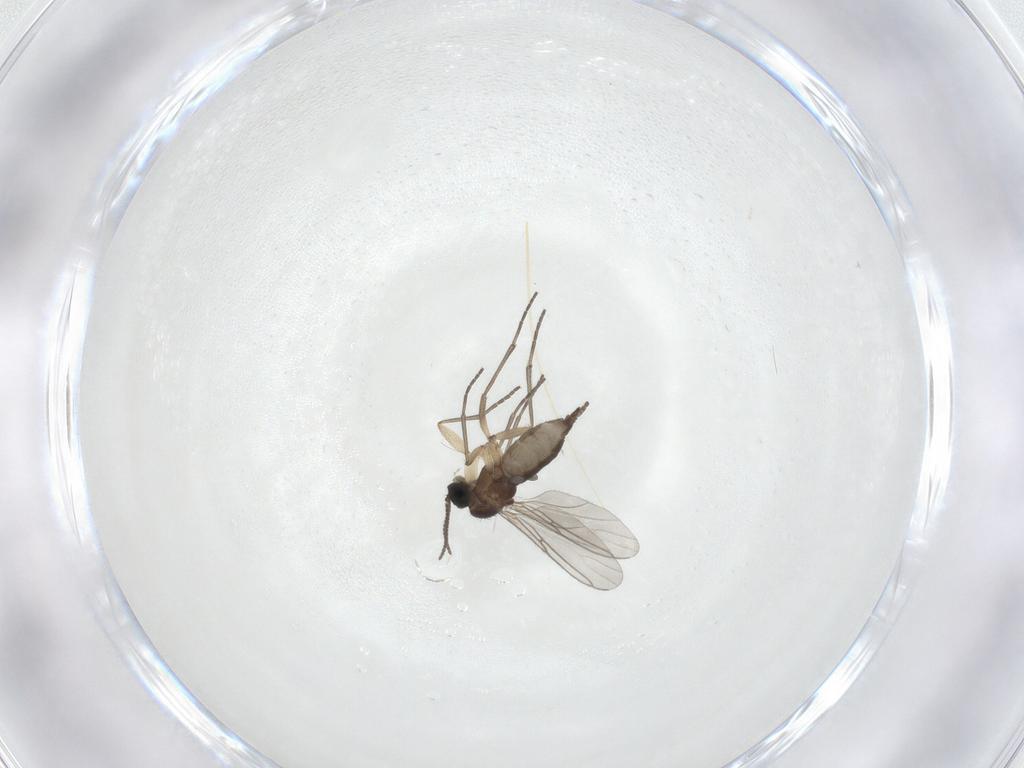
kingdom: Animalia
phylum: Arthropoda
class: Insecta
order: Diptera
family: Sciaridae
